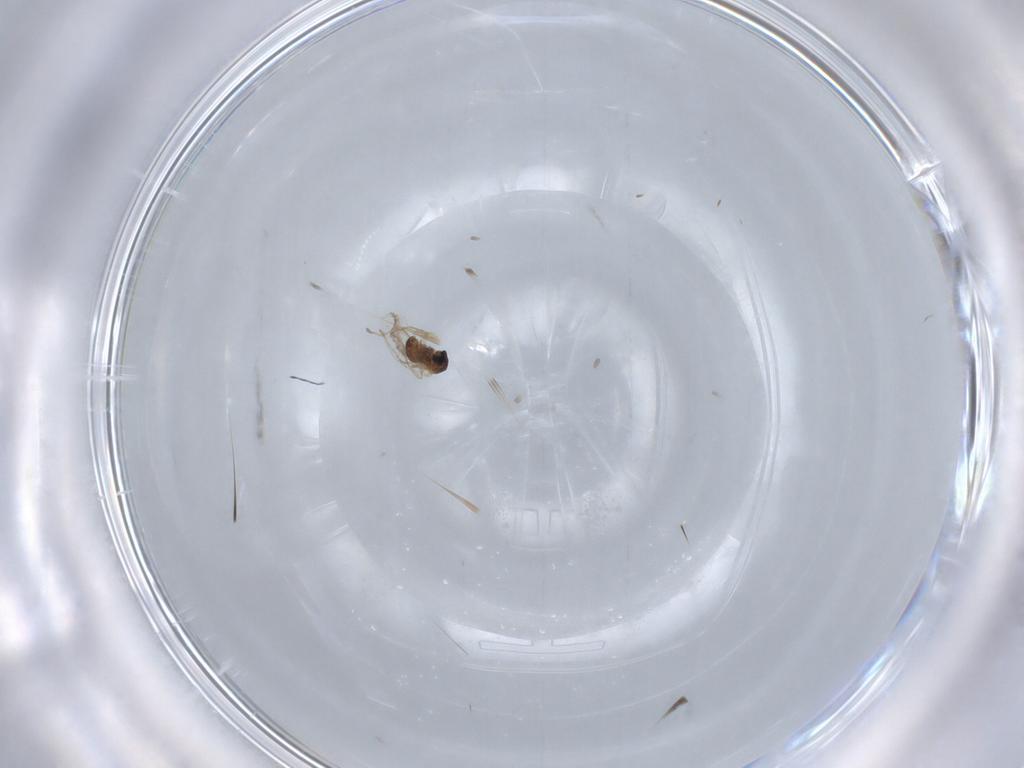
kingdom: Animalia
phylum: Arthropoda
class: Insecta
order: Diptera
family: Cecidomyiidae
